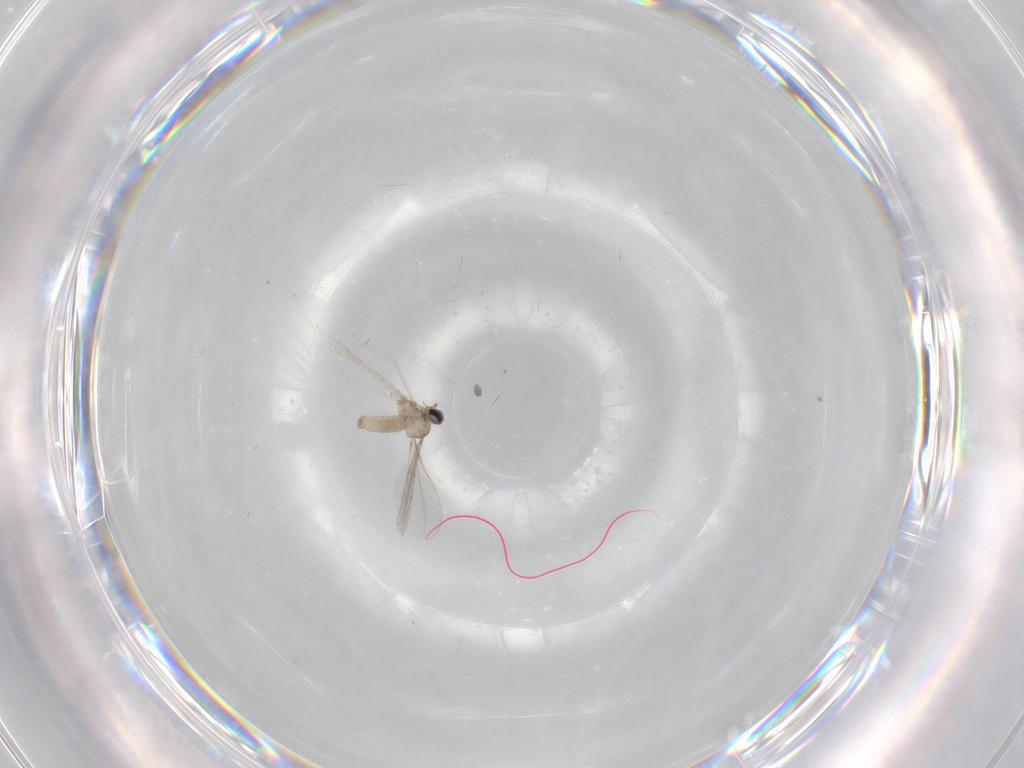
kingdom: Animalia
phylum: Arthropoda
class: Insecta
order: Diptera
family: Cecidomyiidae
